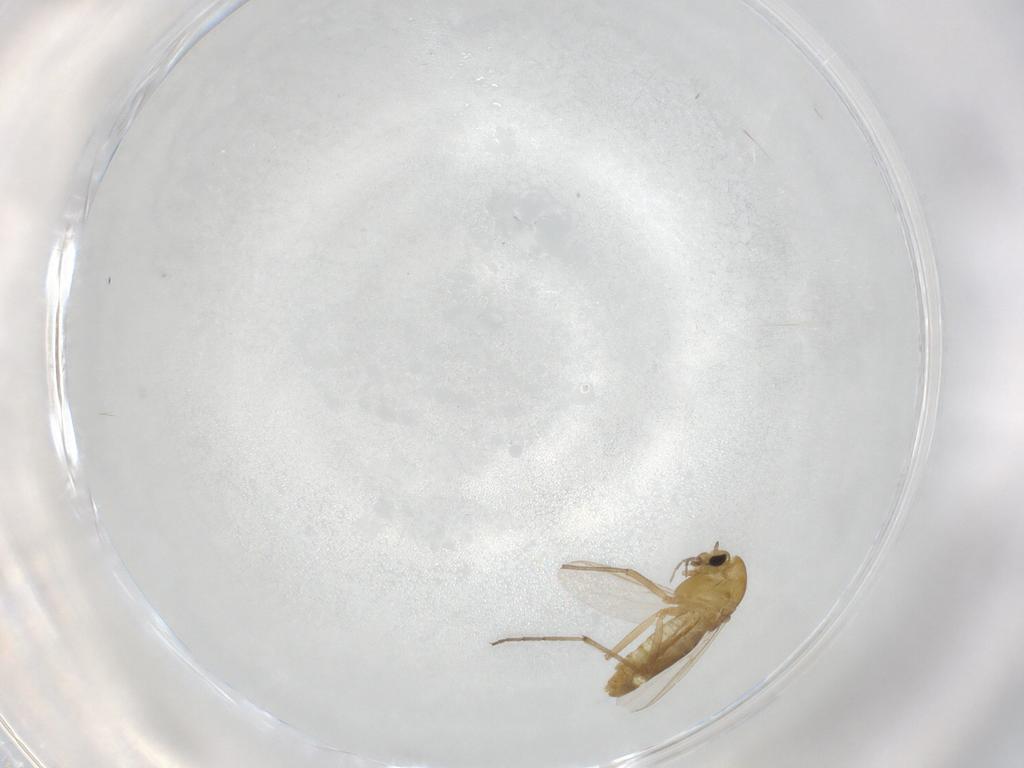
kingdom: Animalia
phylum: Arthropoda
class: Insecta
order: Diptera
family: Chironomidae
